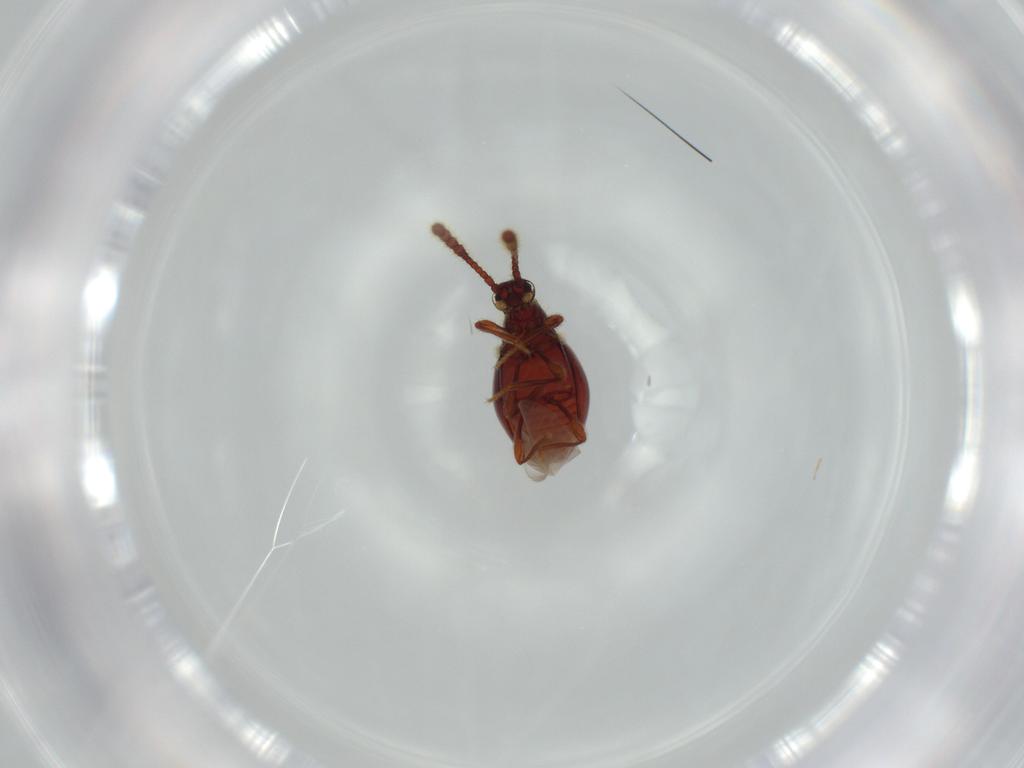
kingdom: Animalia
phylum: Arthropoda
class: Insecta
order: Coleoptera
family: Staphylinidae
